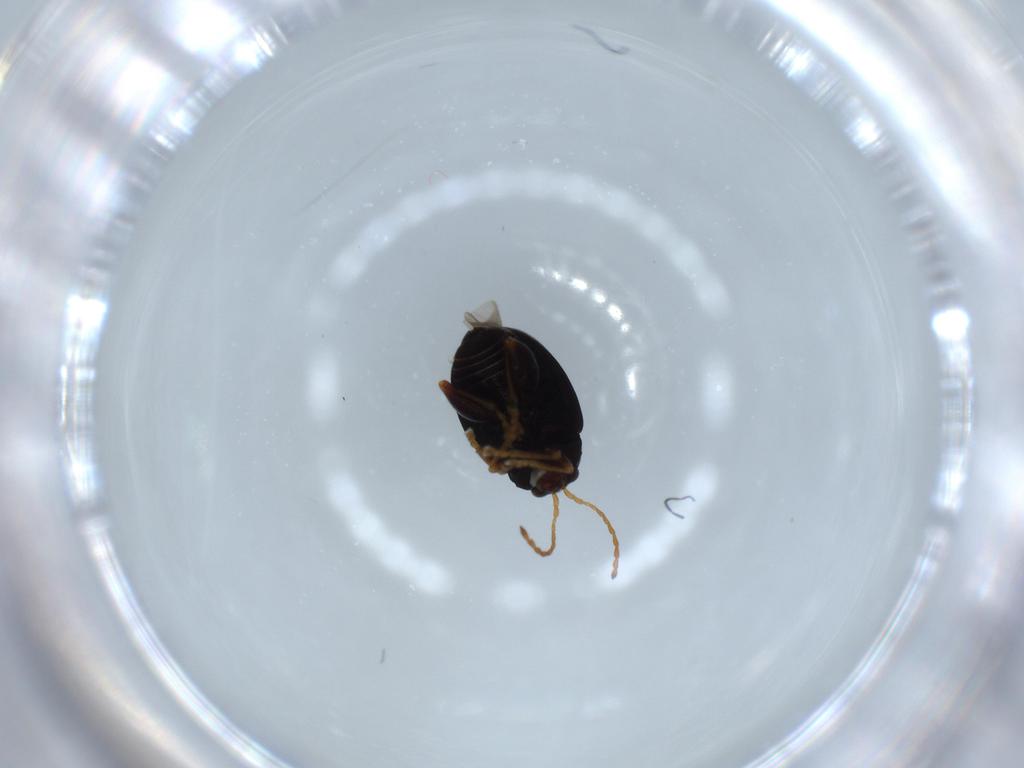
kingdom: Animalia
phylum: Arthropoda
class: Insecta
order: Coleoptera
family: Chrysomelidae
